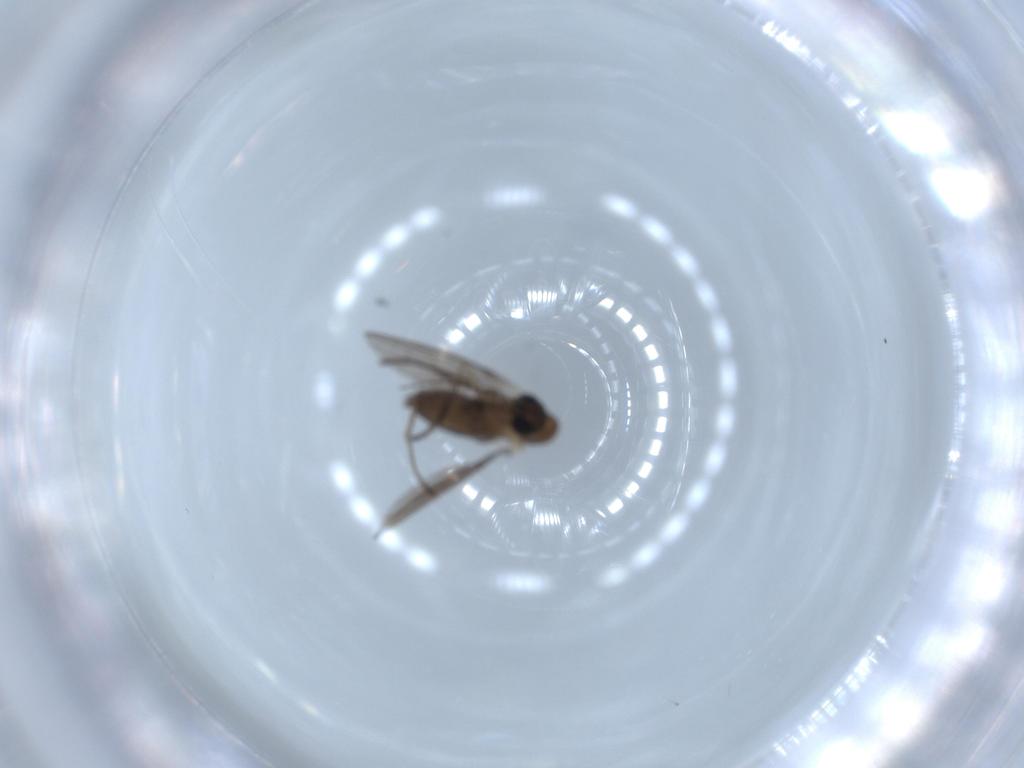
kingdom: Animalia
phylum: Arthropoda
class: Insecta
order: Diptera
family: Psychodidae
